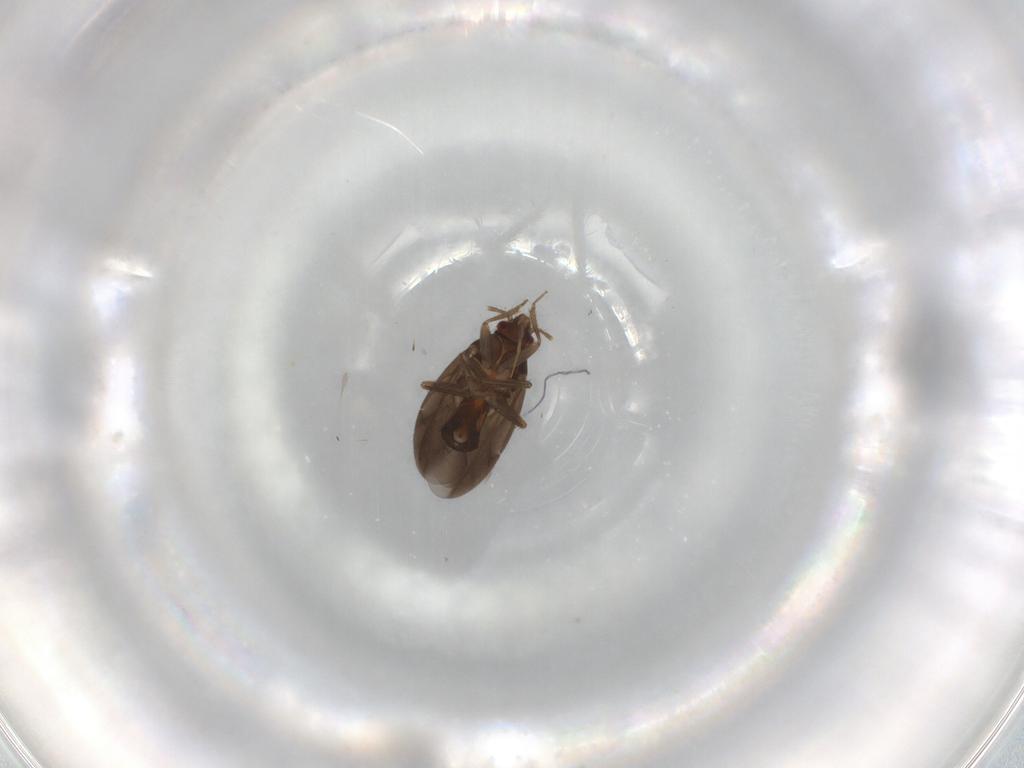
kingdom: Animalia
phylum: Arthropoda
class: Insecta
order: Hemiptera
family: Ceratocombidae
